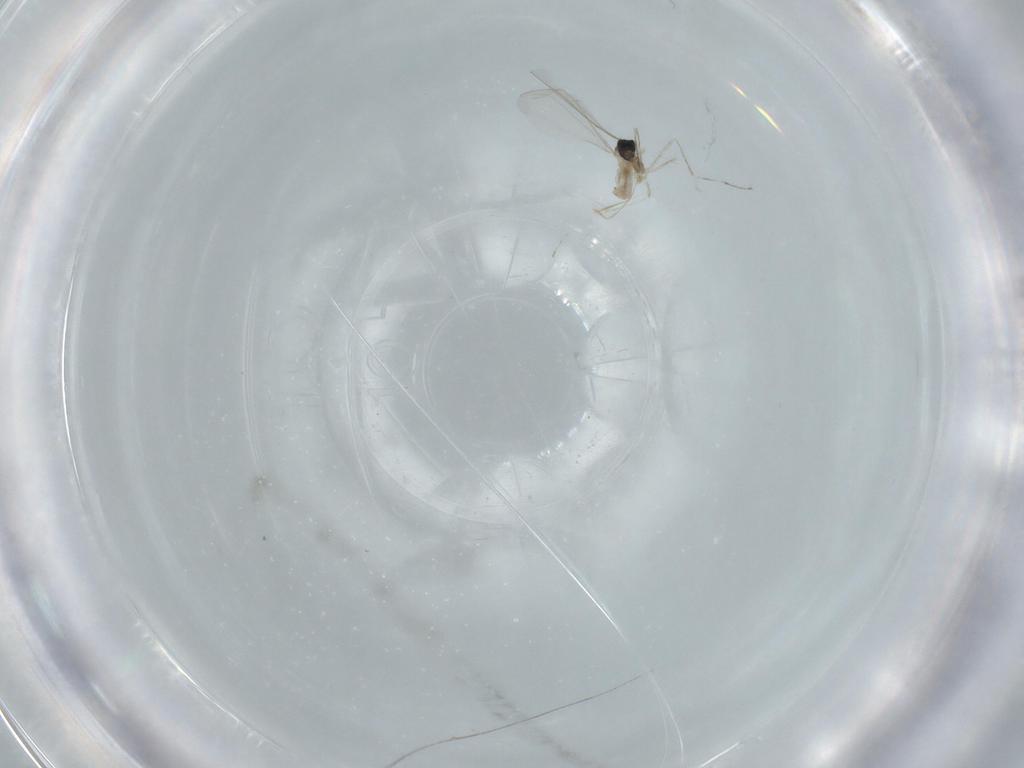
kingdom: Animalia
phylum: Arthropoda
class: Insecta
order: Diptera
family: Cecidomyiidae
